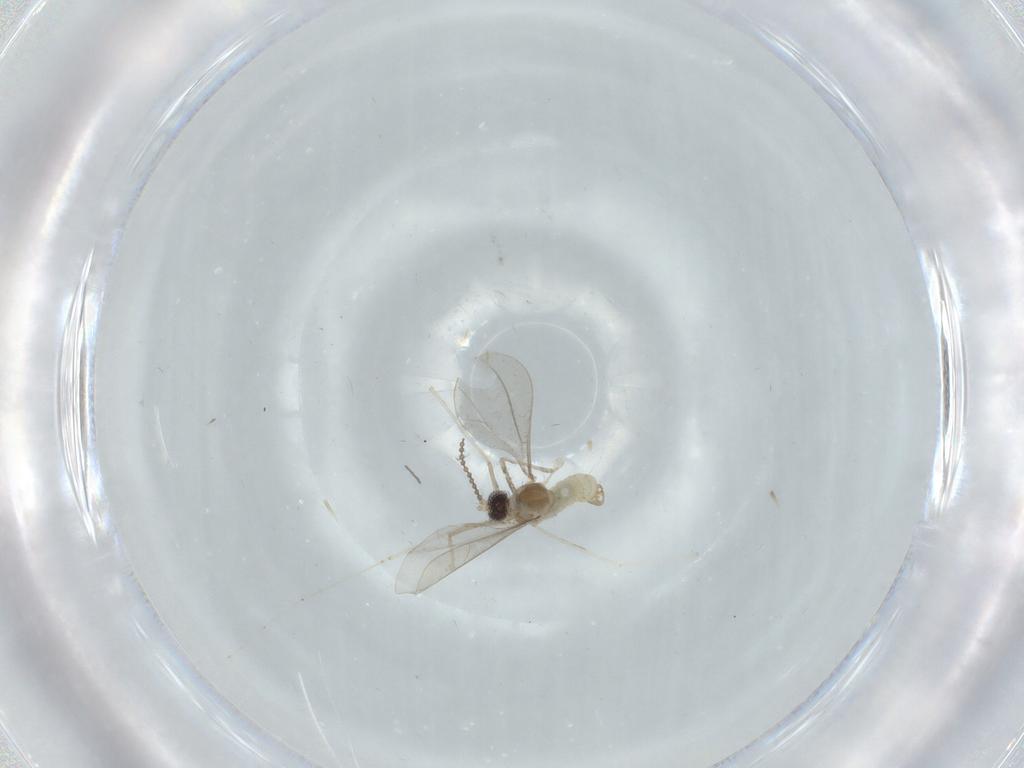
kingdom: Animalia
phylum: Arthropoda
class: Insecta
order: Diptera
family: Cecidomyiidae
